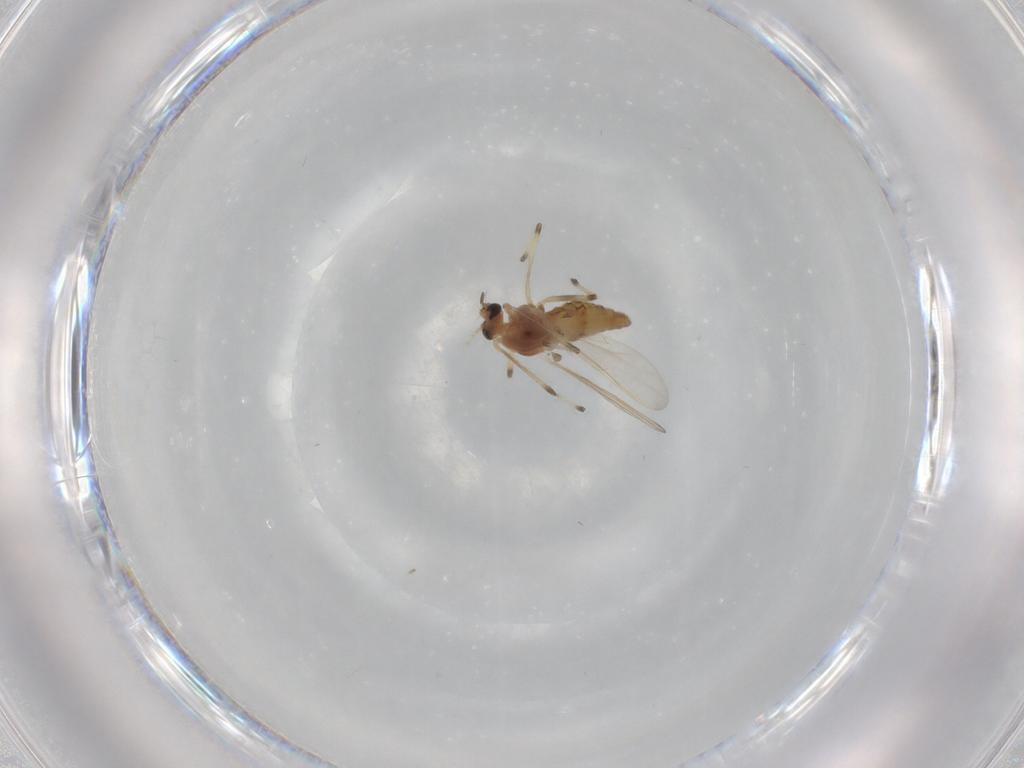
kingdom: Animalia
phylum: Arthropoda
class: Insecta
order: Diptera
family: Chironomidae
